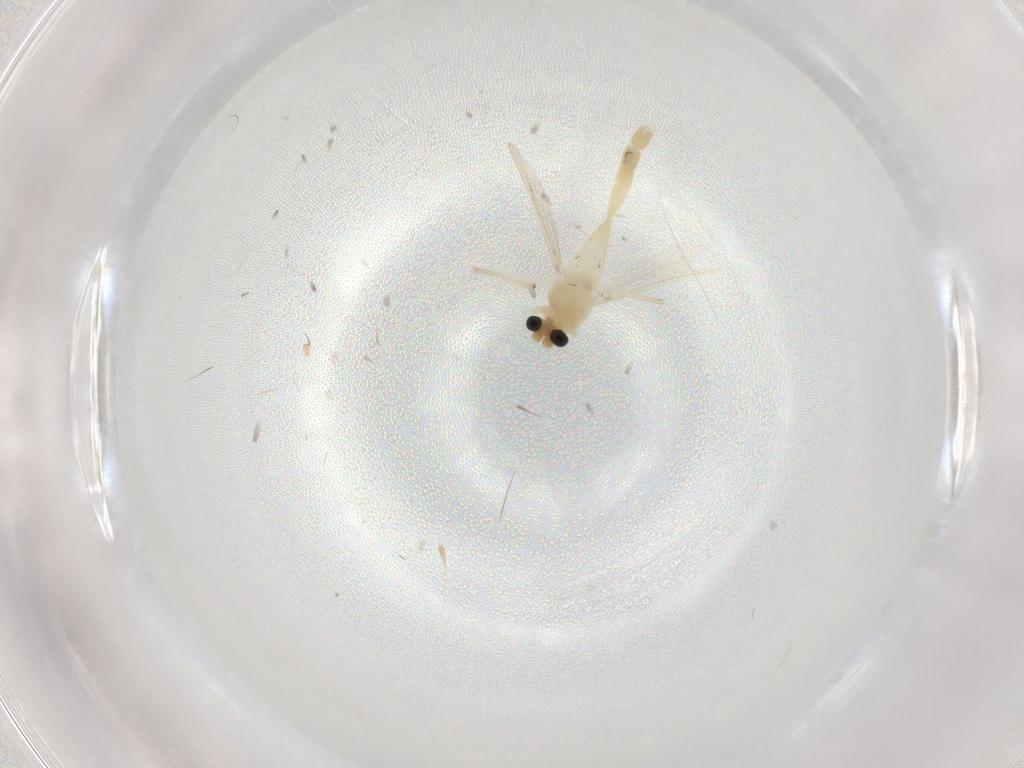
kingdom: Animalia
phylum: Arthropoda
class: Insecta
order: Diptera
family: Chironomidae
